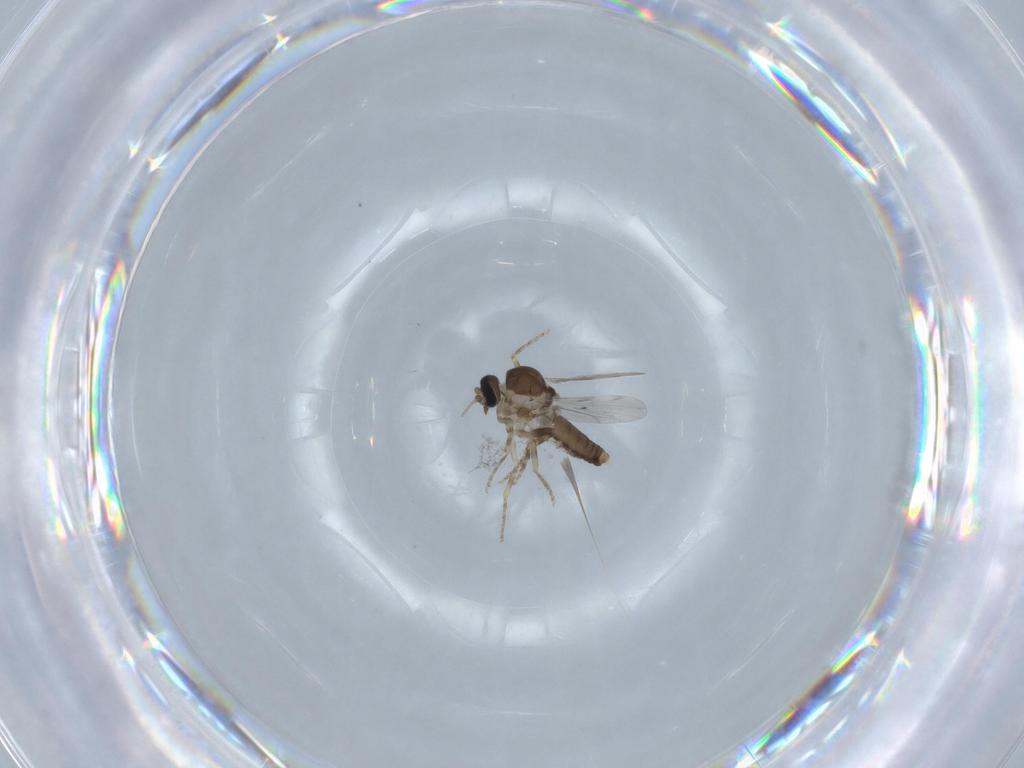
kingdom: Animalia
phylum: Arthropoda
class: Insecta
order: Diptera
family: Ceratopogonidae
